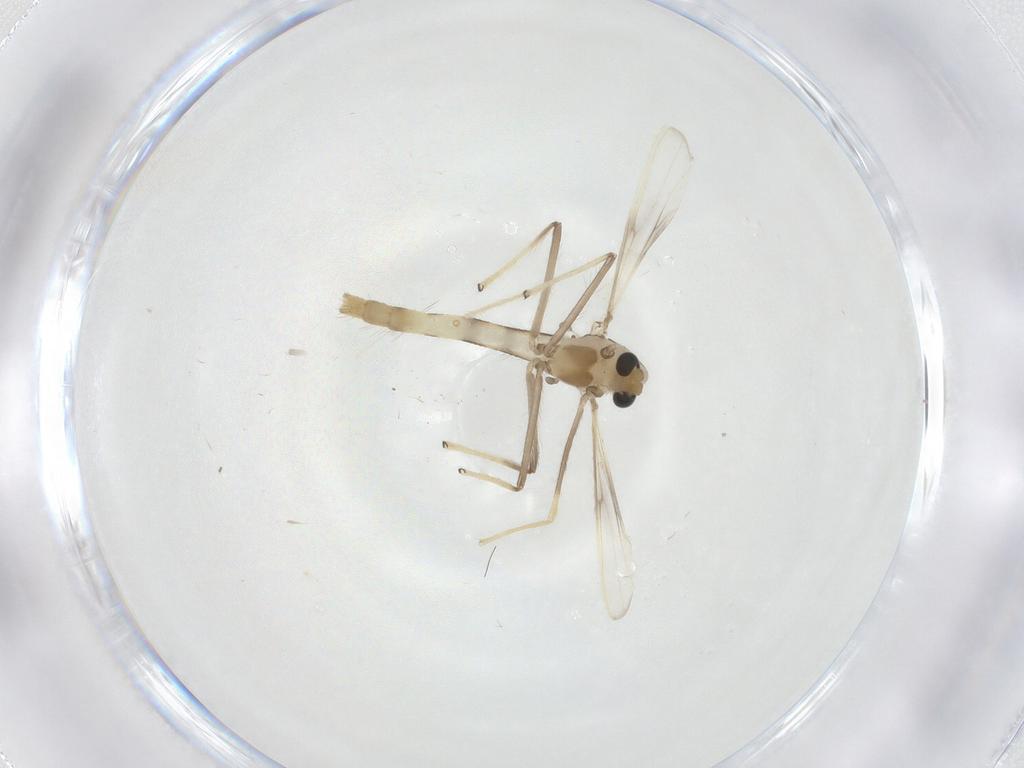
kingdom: Animalia
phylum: Arthropoda
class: Insecta
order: Diptera
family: Chironomidae
